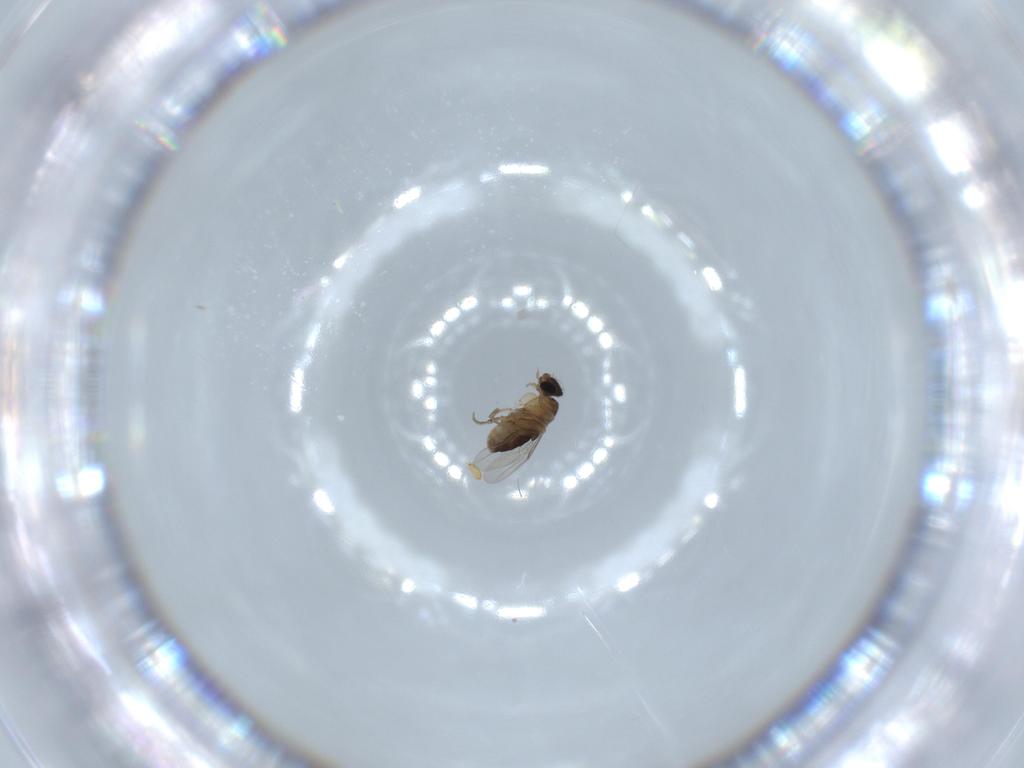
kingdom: Animalia
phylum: Arthropoda
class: Insecta
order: Diptera
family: Phoridae
